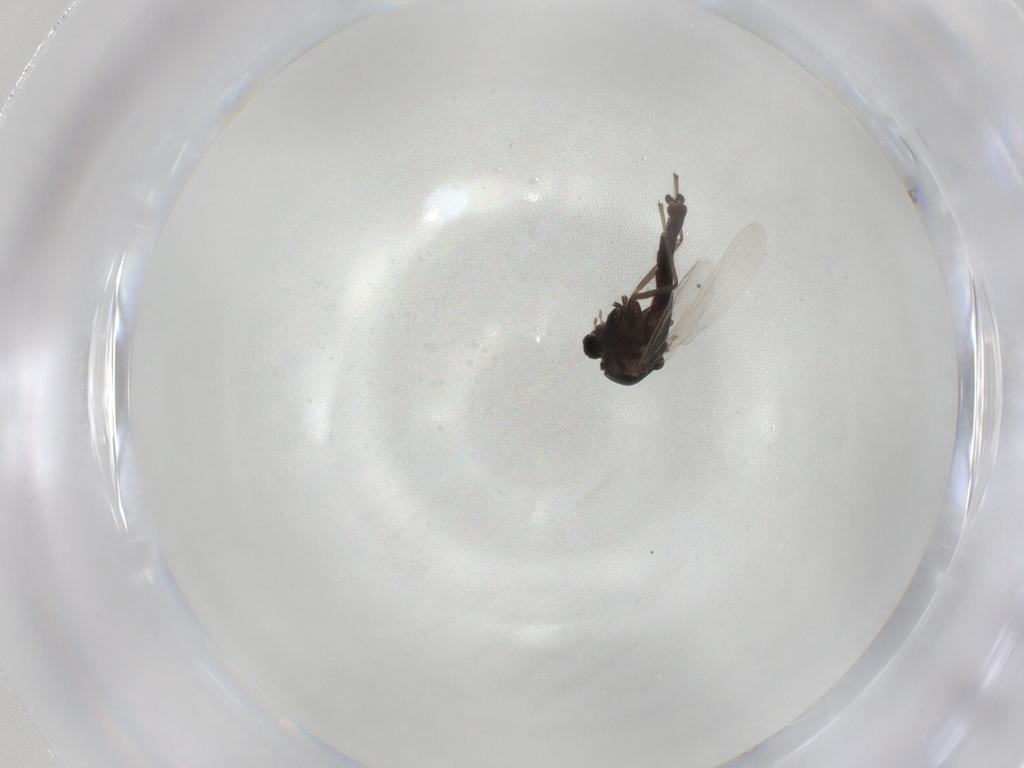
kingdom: Animalia
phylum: Arthropoda
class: Insecta
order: Diptera
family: Chironomidae
